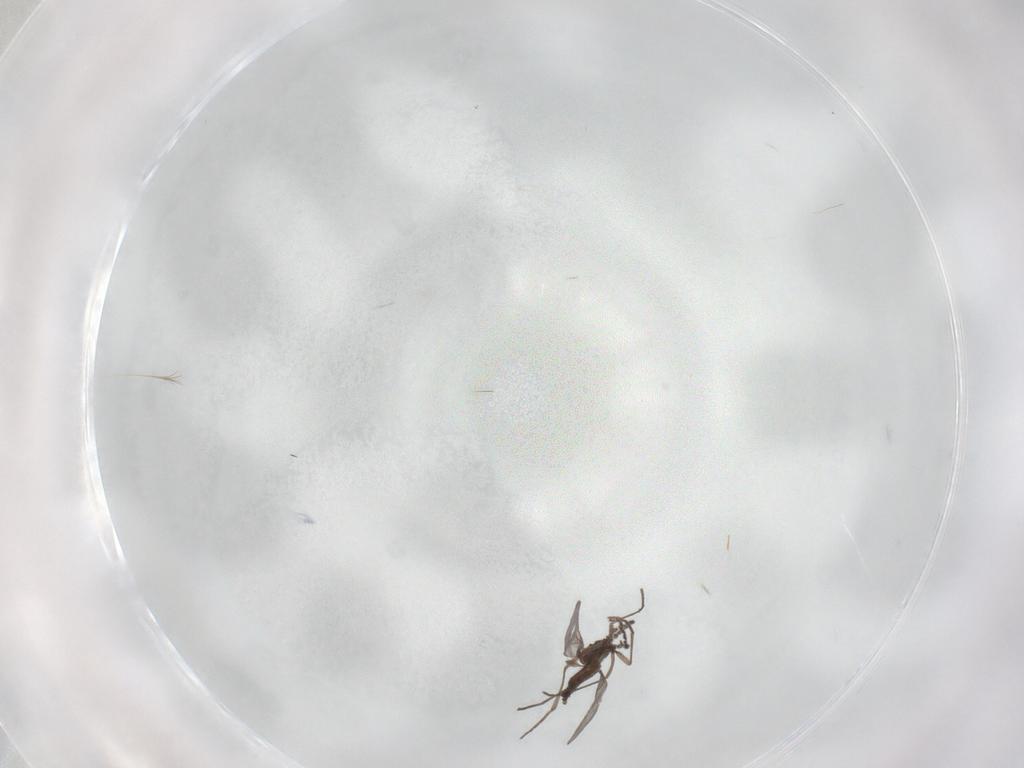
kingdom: Animalia
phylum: Arthropoda
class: Insecta
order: Diptera
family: Sciaridae
